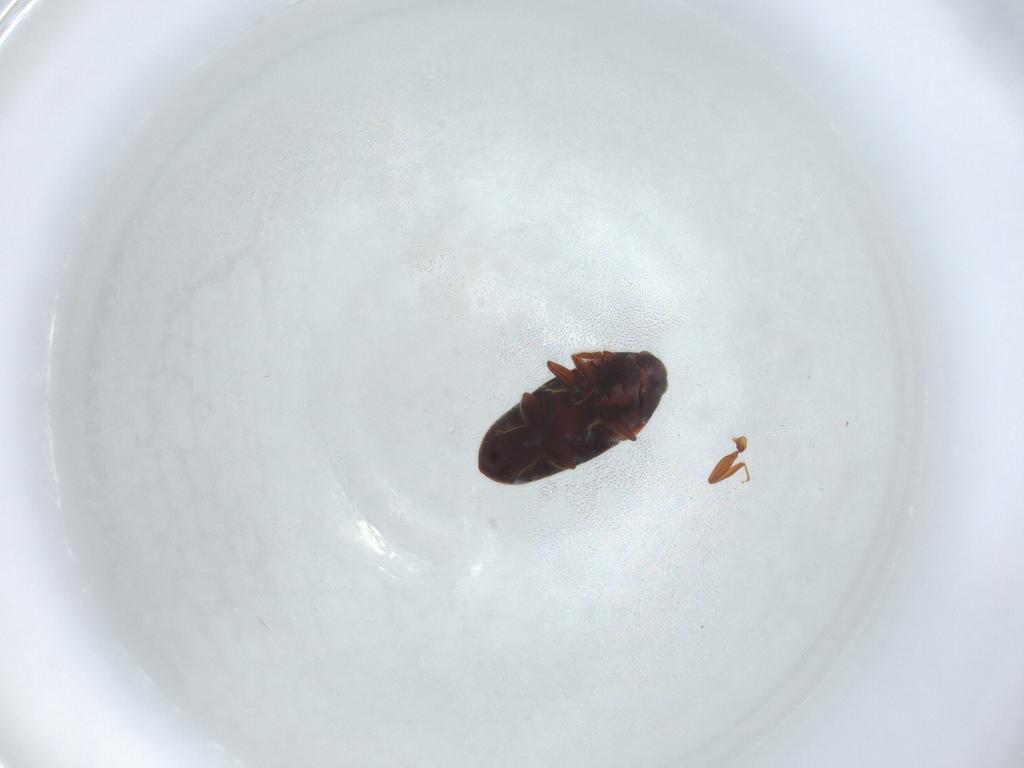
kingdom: Animalia
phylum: Arthropoda
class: Insecta
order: Coleoptera
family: Throscidae
